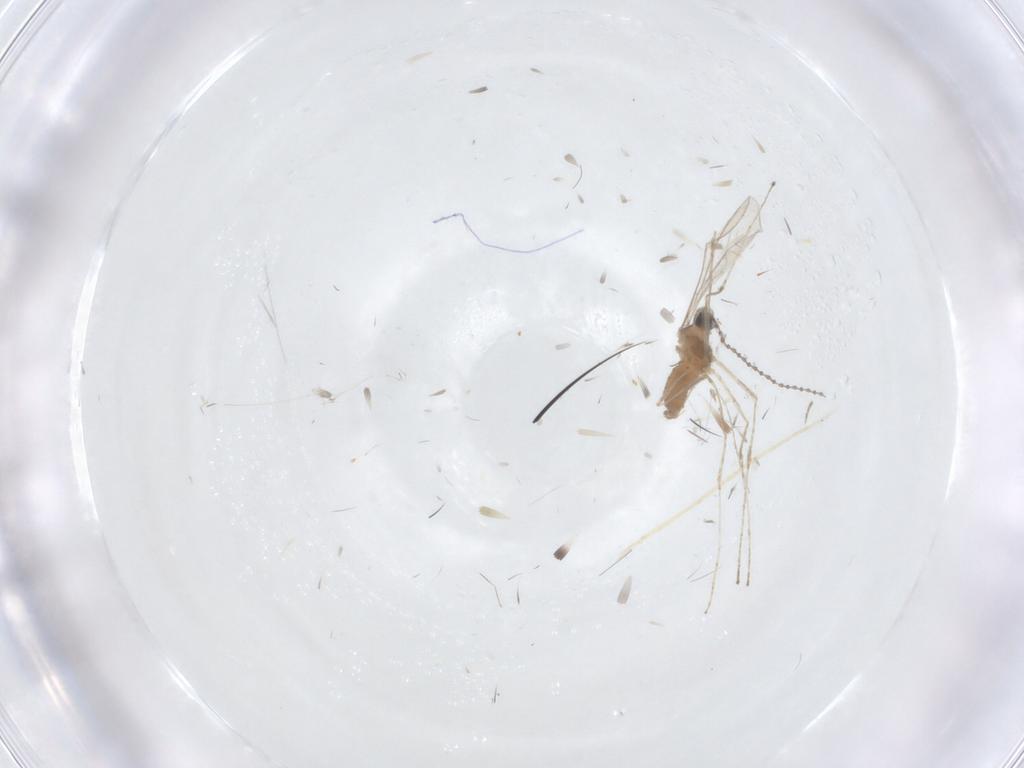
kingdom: Animalia
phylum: Arthropoda
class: Insecta
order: Diptera
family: Cecidomyiidae
